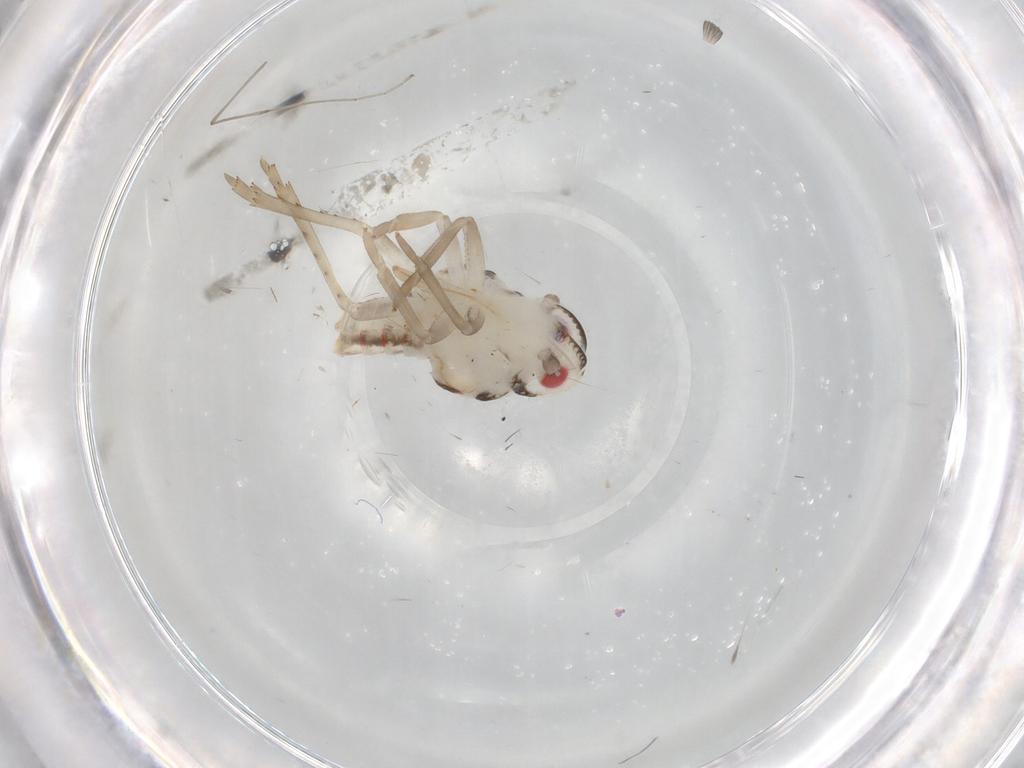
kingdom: Animalia
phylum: Arthropoda
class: Insecta
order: Hemiptera
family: Nogodinidae
